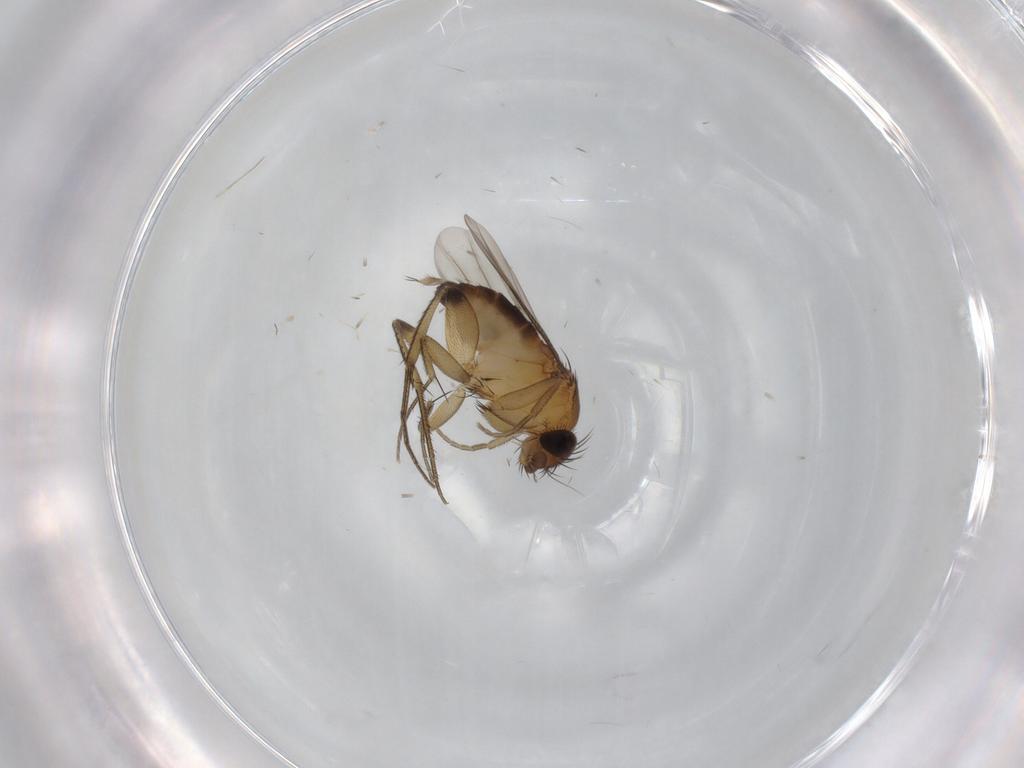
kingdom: Animalia
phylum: Arthropoda
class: Insecta
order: Diptera
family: Phoridae
